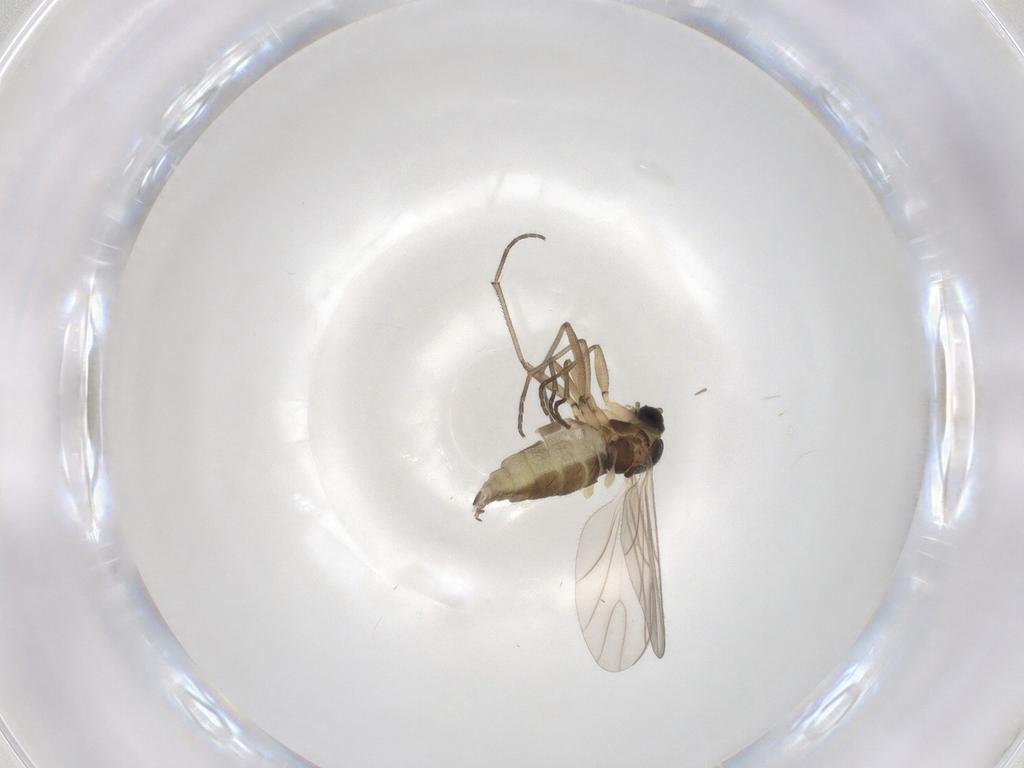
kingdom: Animalia
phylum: Arthropoda
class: Insecta
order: Diptera
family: Sciaridae
